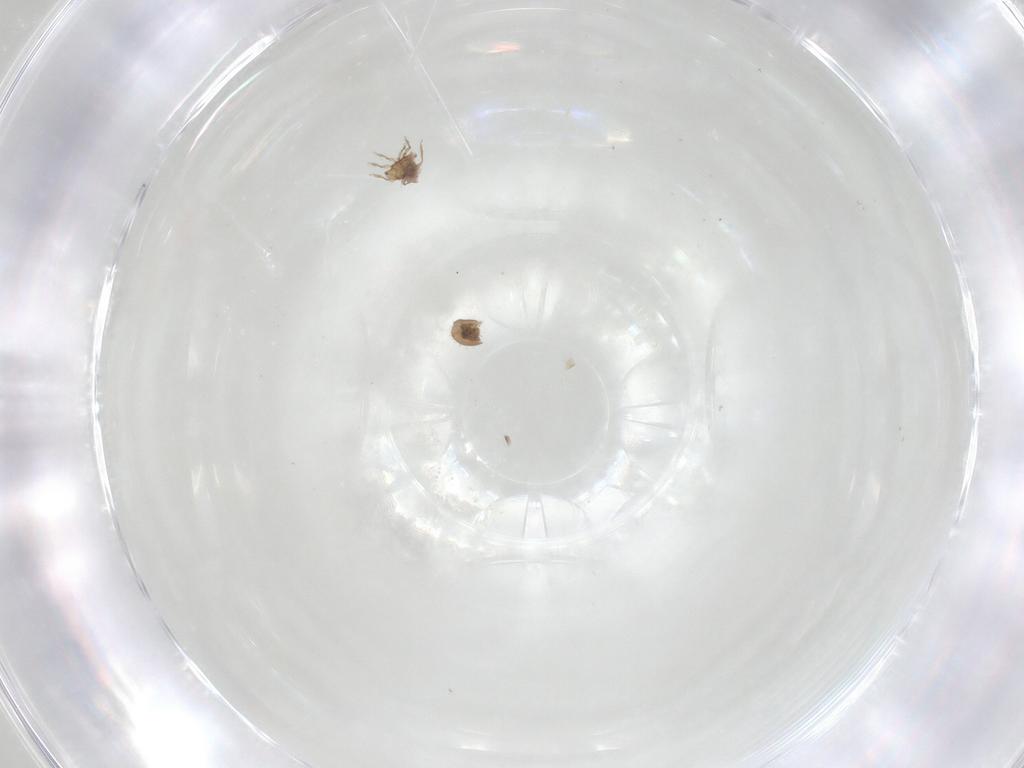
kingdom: Animalia
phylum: Arthropoda
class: Arachnida
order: Sarcoptiformes
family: Oribatulidae
